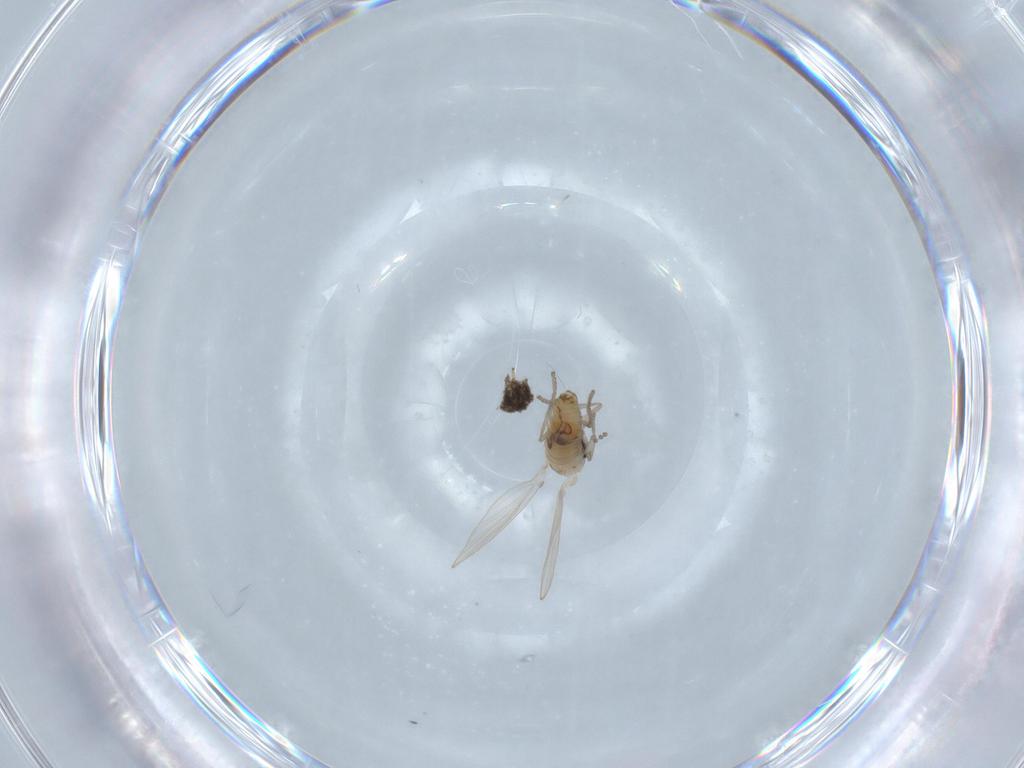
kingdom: Animalia
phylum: Arthropoda
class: Insecta
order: Diptera
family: Psychodidae
